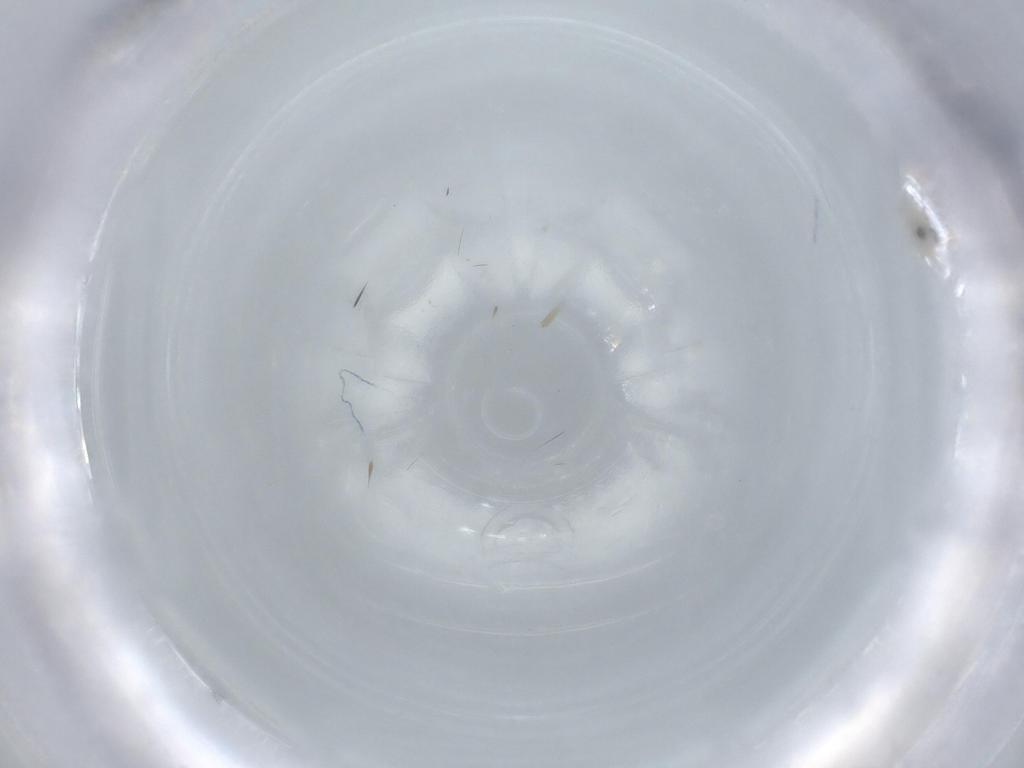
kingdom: Animalia
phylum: Arthropoda
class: Insecta
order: Diptera
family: Cecidomyiidae
